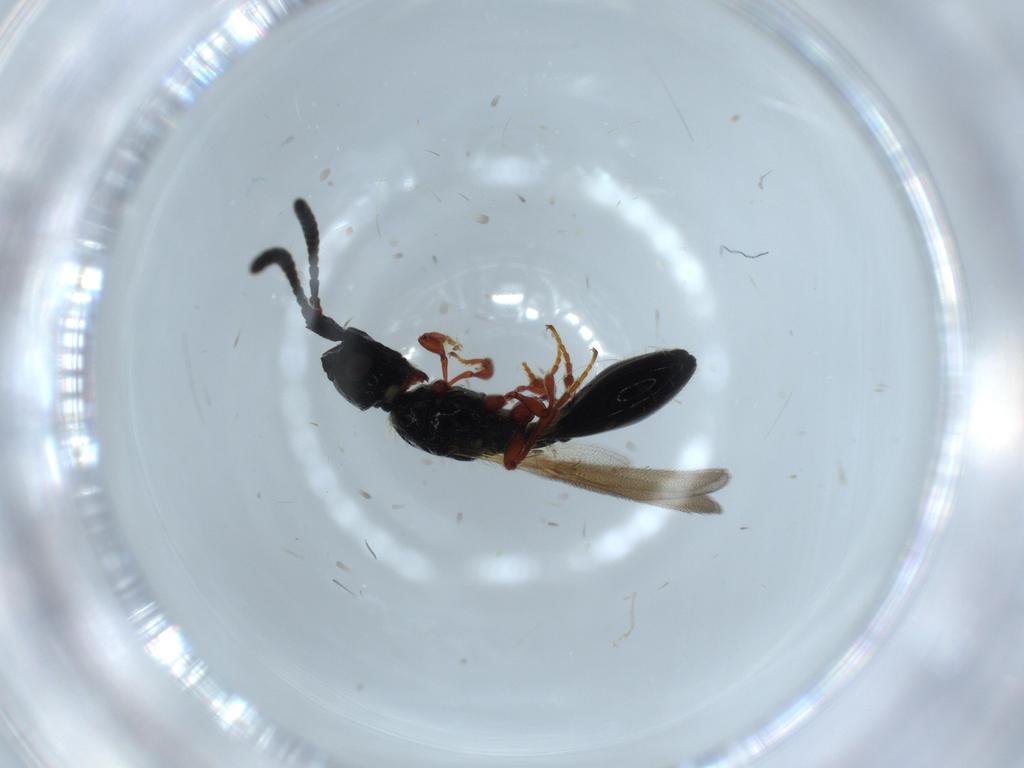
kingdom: Animalia
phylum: Arthropoda
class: Insecta
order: Hymenoptera
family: Diapriidae
